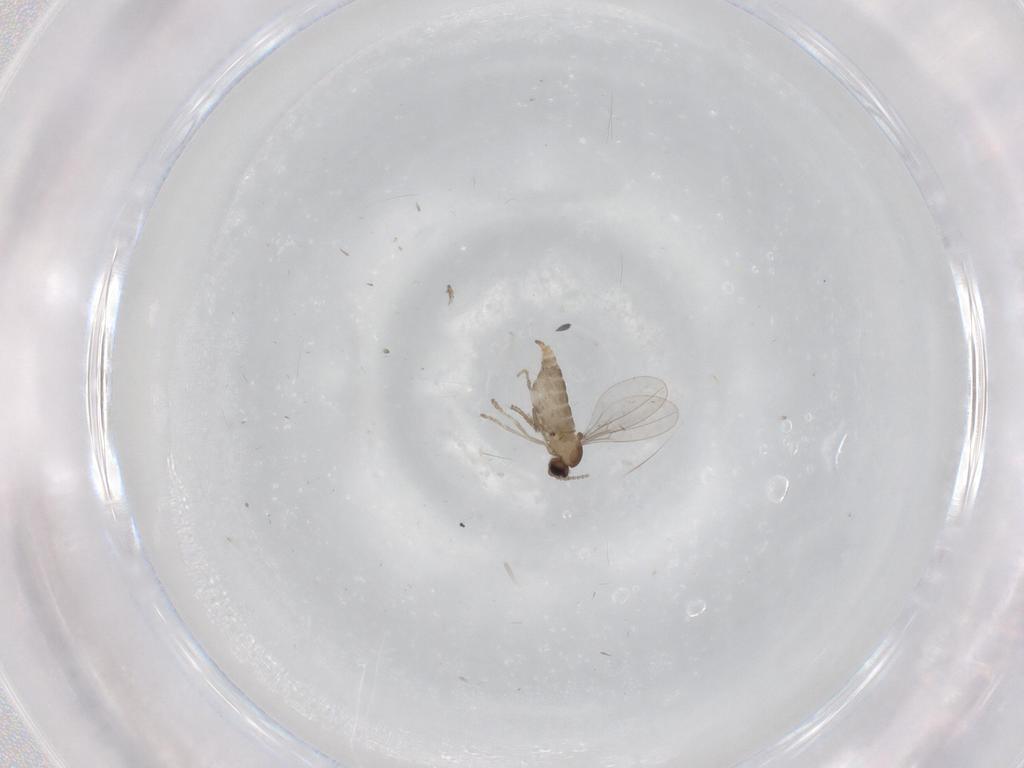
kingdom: Animalia
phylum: Arthropoda
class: Insecta
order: Diptera
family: Cecidomyiidae
